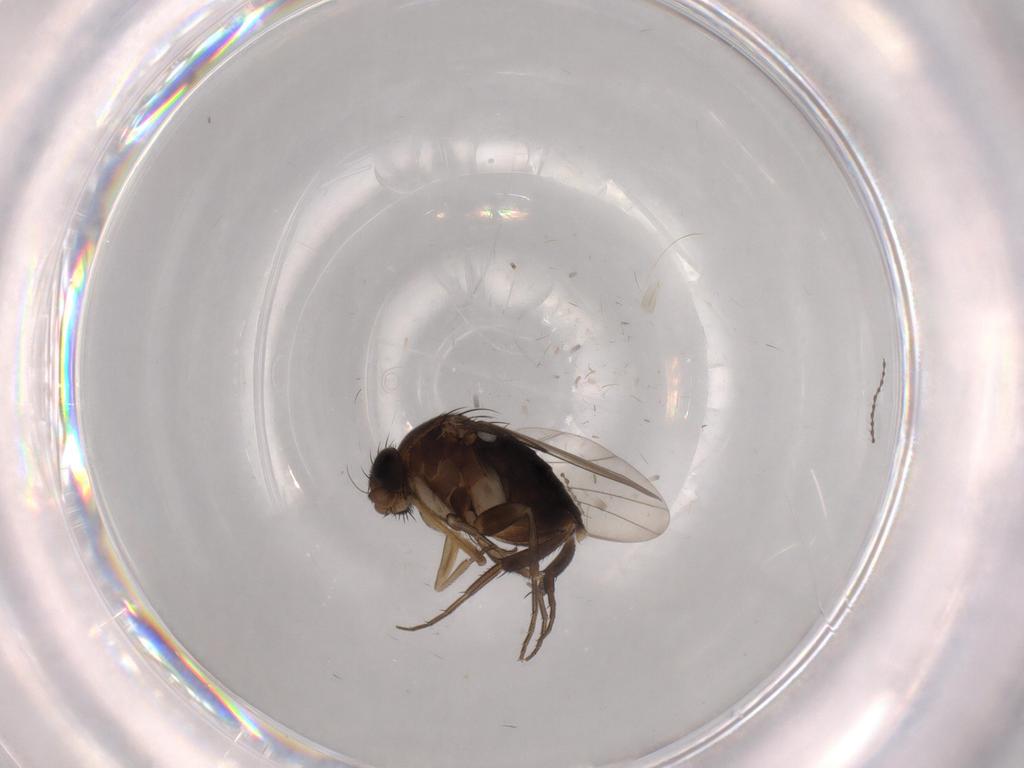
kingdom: Animalia
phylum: Arthropoda
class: Insecta
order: Diptera
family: Phoridae
